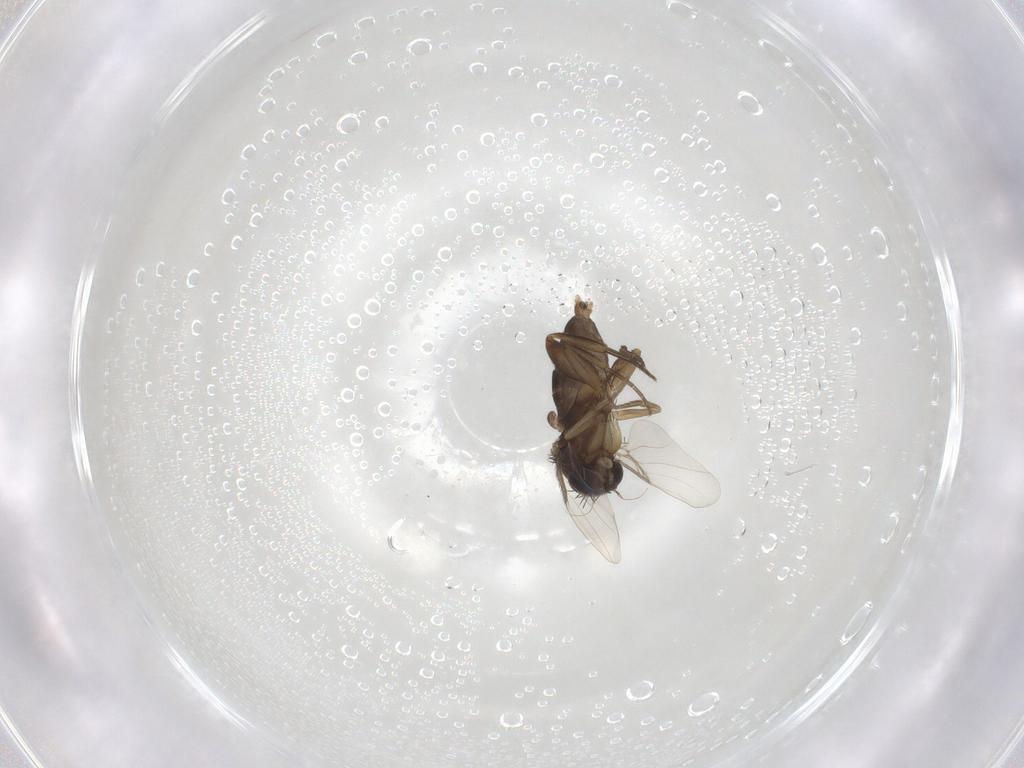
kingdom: Animalia
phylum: Arthropoda
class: Insecta
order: Diptera
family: Phoridae
